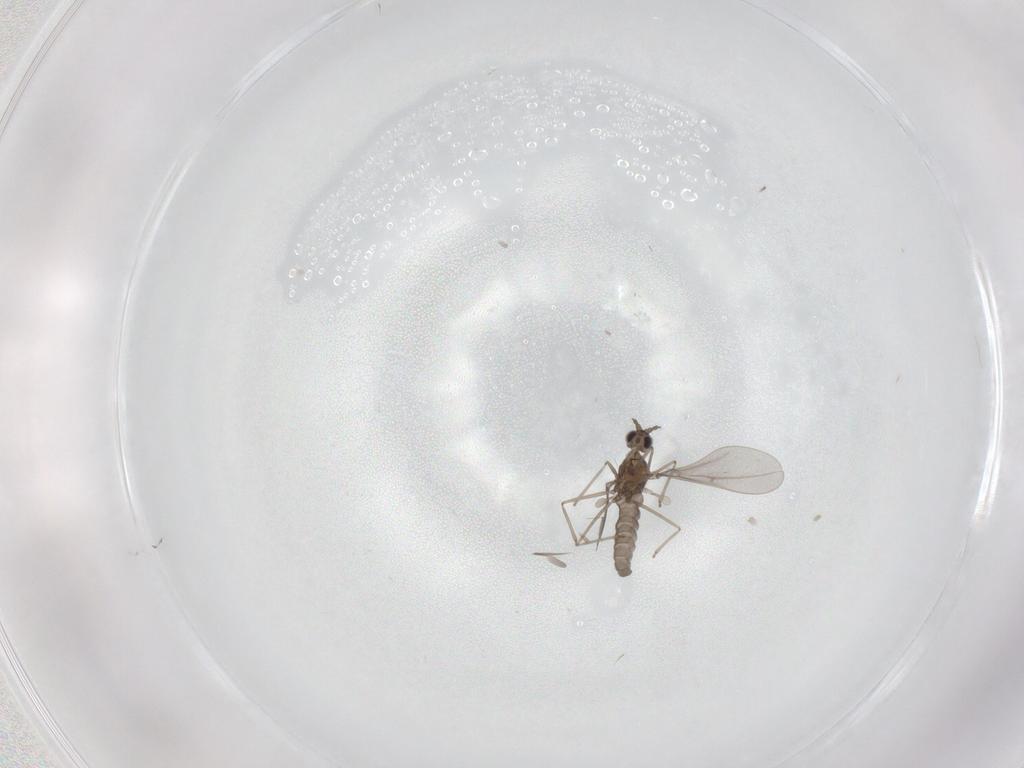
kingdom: Animalia
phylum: Arthropoda
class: Insecta
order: Diptera
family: Cecidomyiidae
